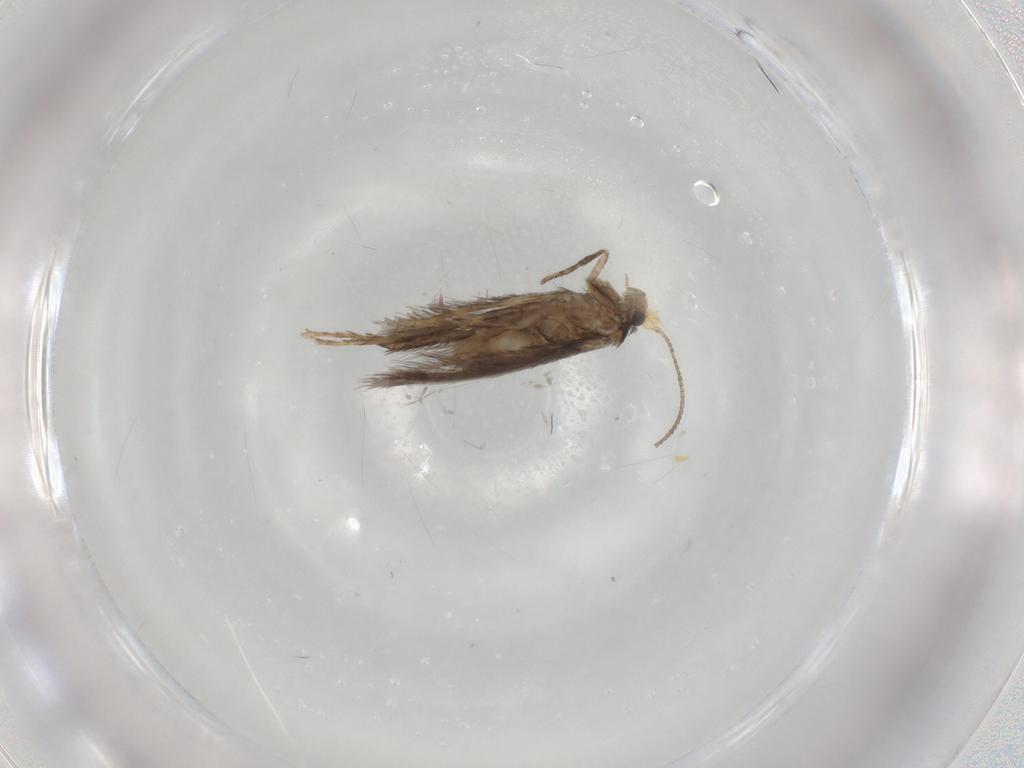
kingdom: Animalia
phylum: Arthropoda
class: Insecta
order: Lepidoptera
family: Nepticulidae
